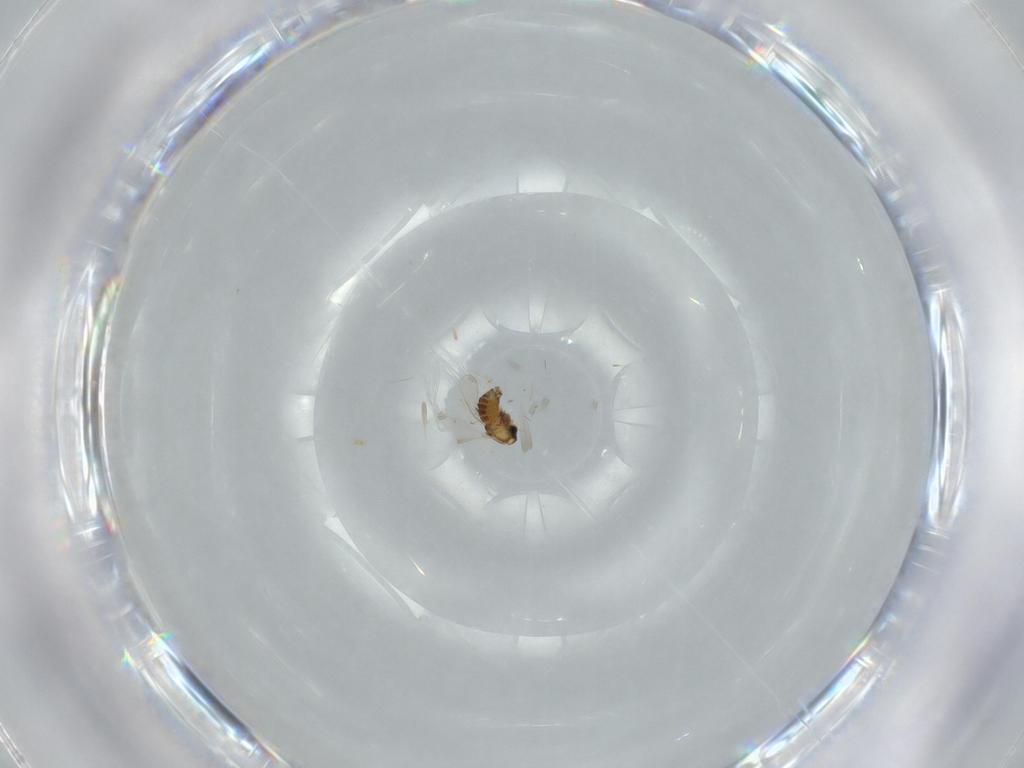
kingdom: Animalia
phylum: Arthropoda
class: Insecta
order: Diptera
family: Chironomidae
